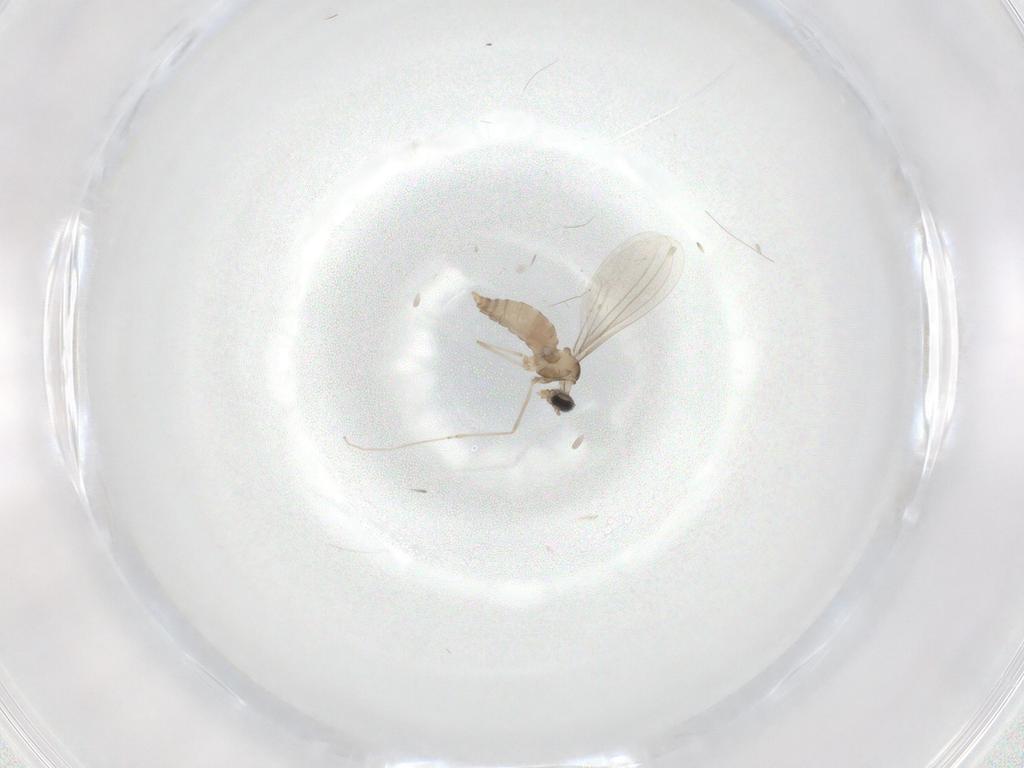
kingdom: Animalia
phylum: Arthropoda
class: Insecta
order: Diptera
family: Cecidomyiidae
